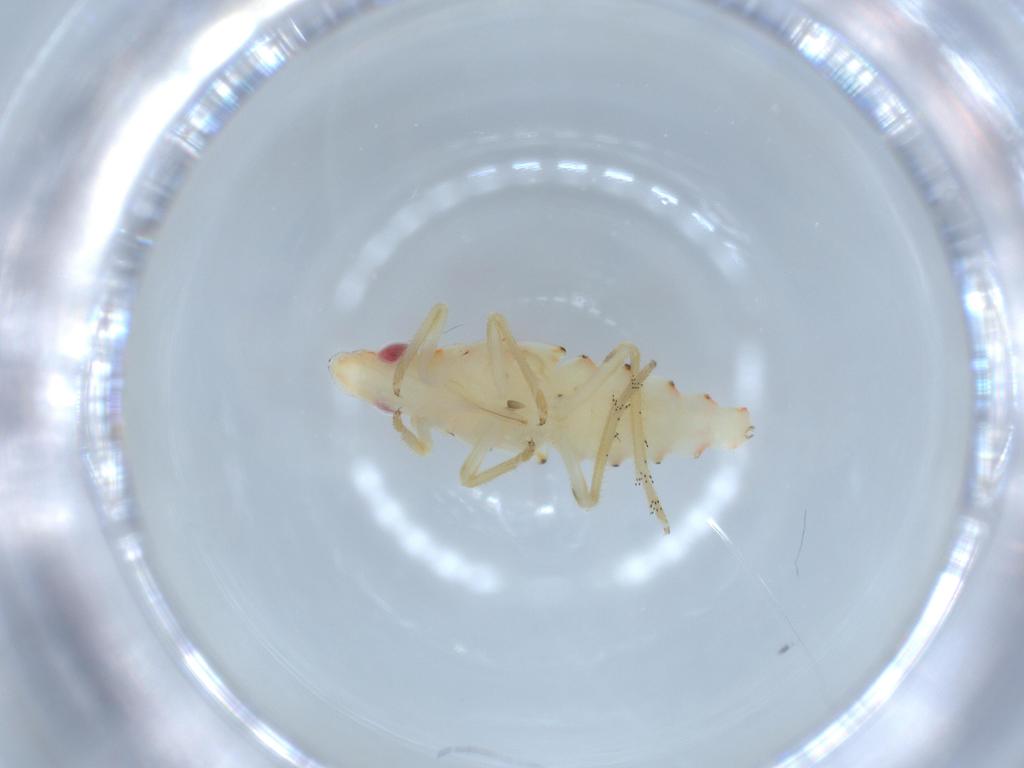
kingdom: Animalia
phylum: Arthropoda
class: Insecta
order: Hemiptera
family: Tropiduchidae
